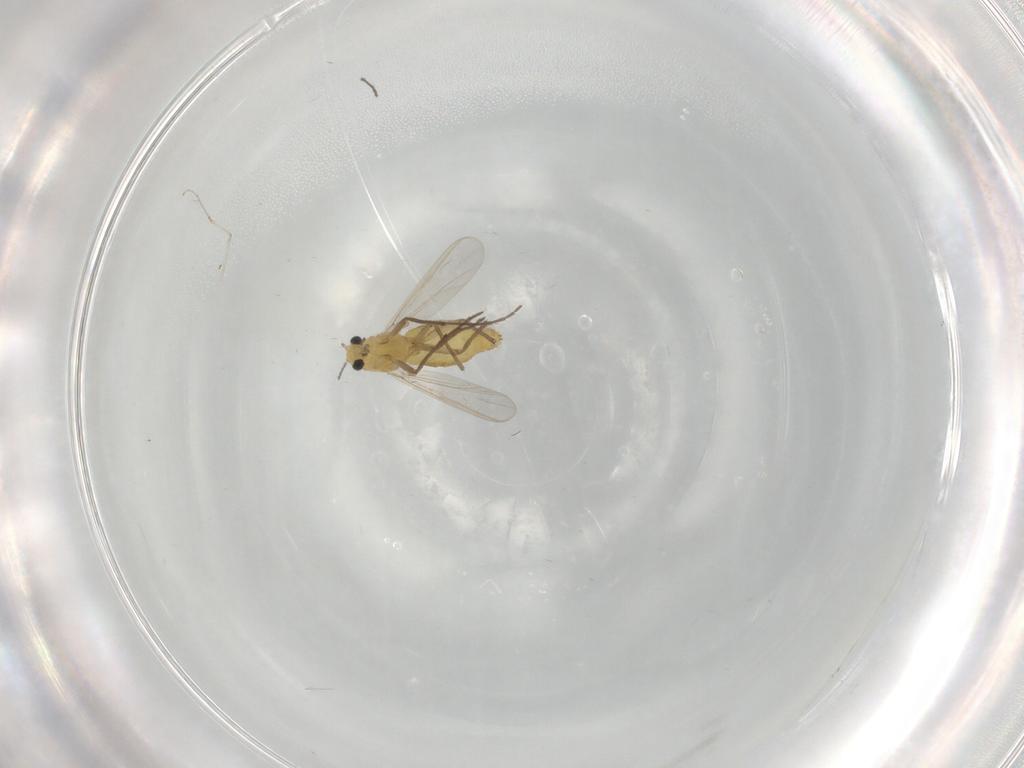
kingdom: Animalia
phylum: Arthropoda
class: Insecta
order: Diptera
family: Chironomidae
